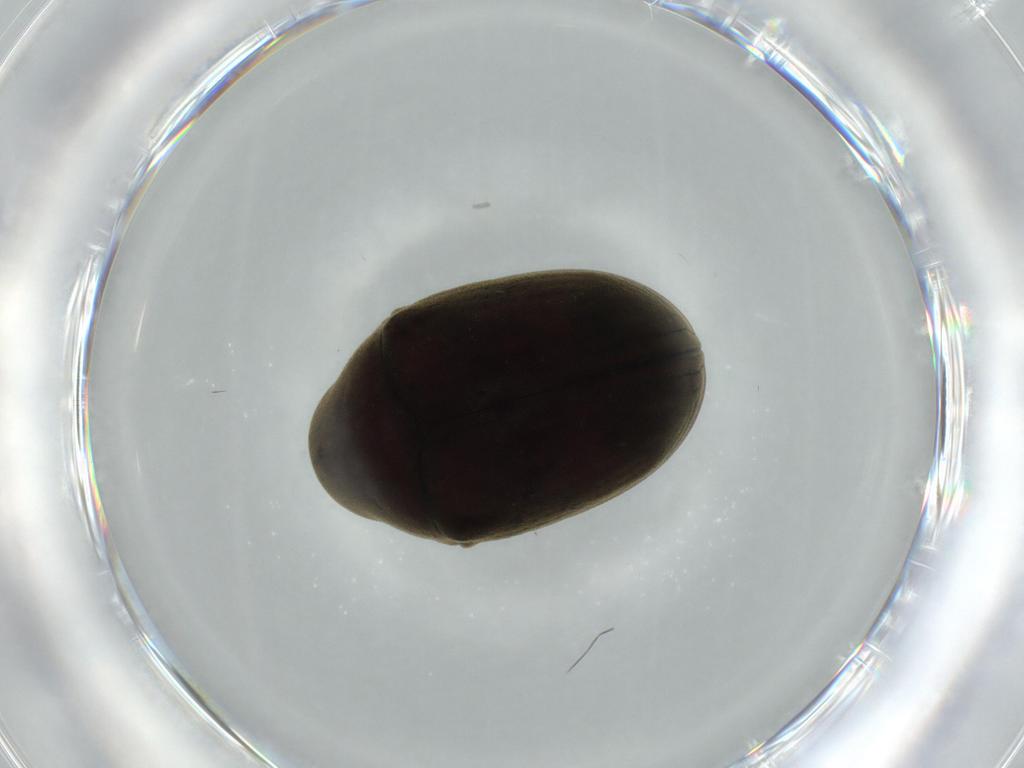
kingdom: Animalia
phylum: Arthropoda
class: Insecta
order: Coleoptera
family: Ptinidae
